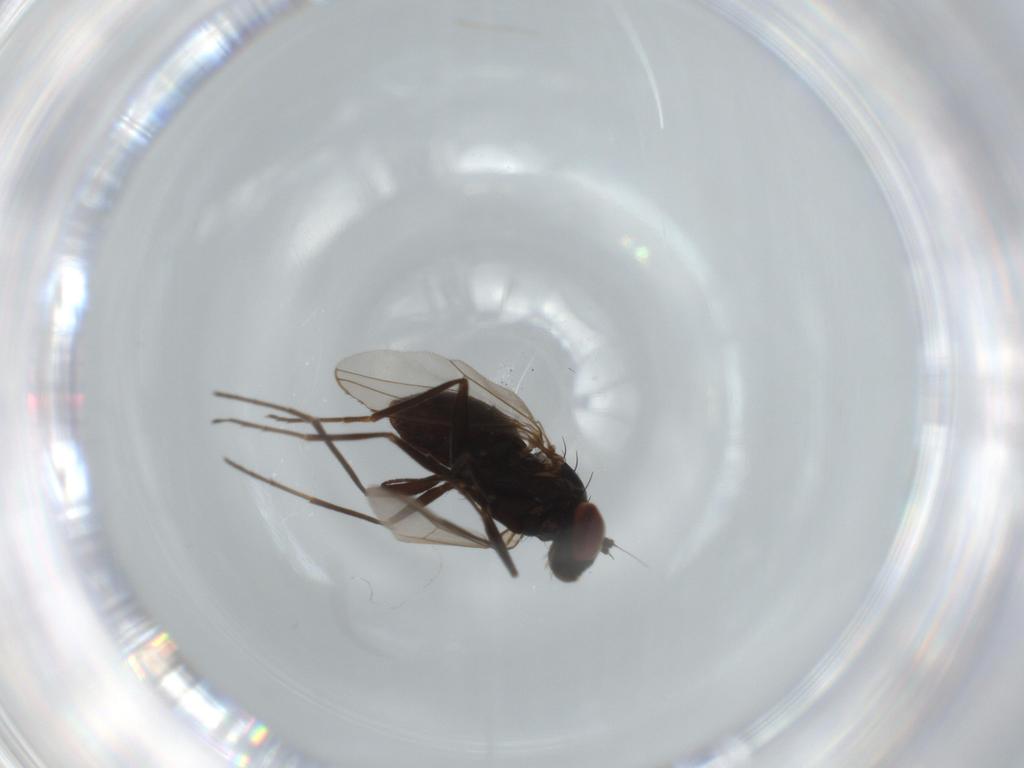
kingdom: Animalia
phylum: Arthropoda
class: Insecta
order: Diptera
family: Dolichopodidae
